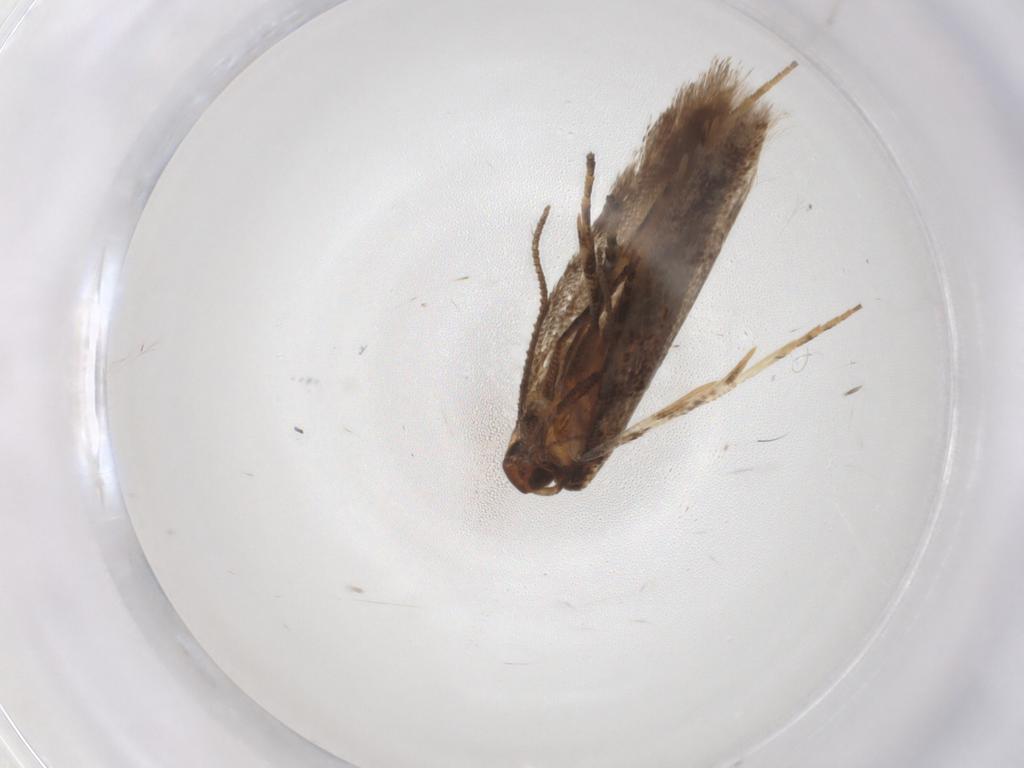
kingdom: Animalia
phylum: Arthropoda
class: Insecta
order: Lepidoptera
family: Gelechiidae
